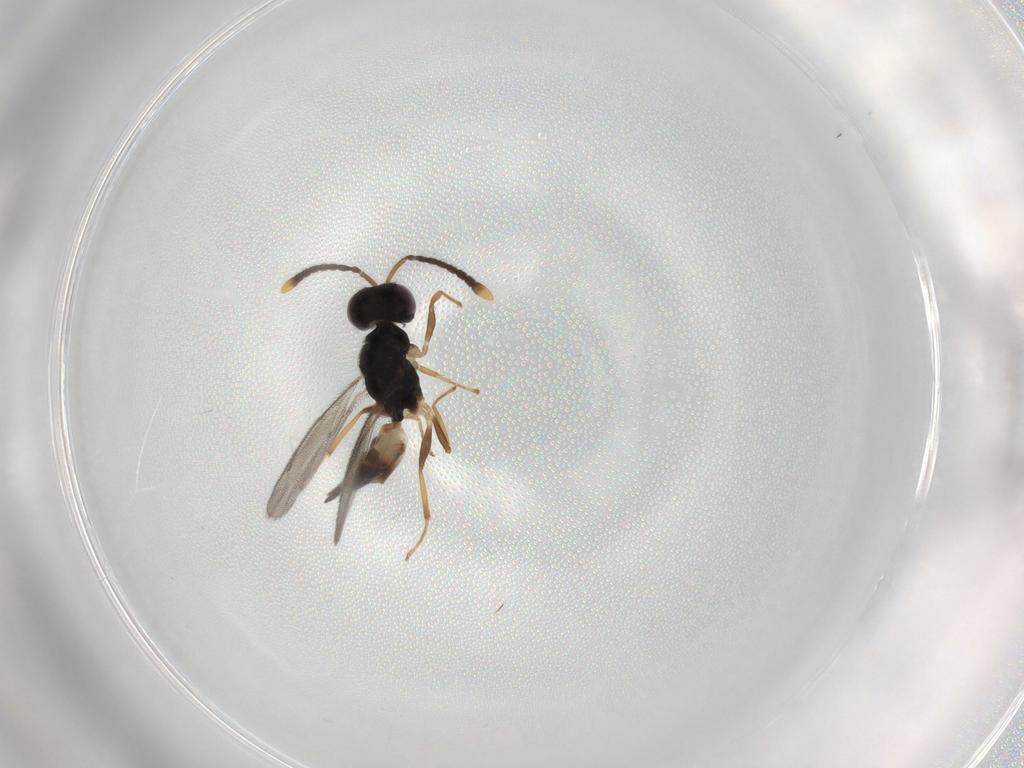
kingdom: Animalia
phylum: Arthropoda
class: Insecta
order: Hymenoptera
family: Pteromalidae
